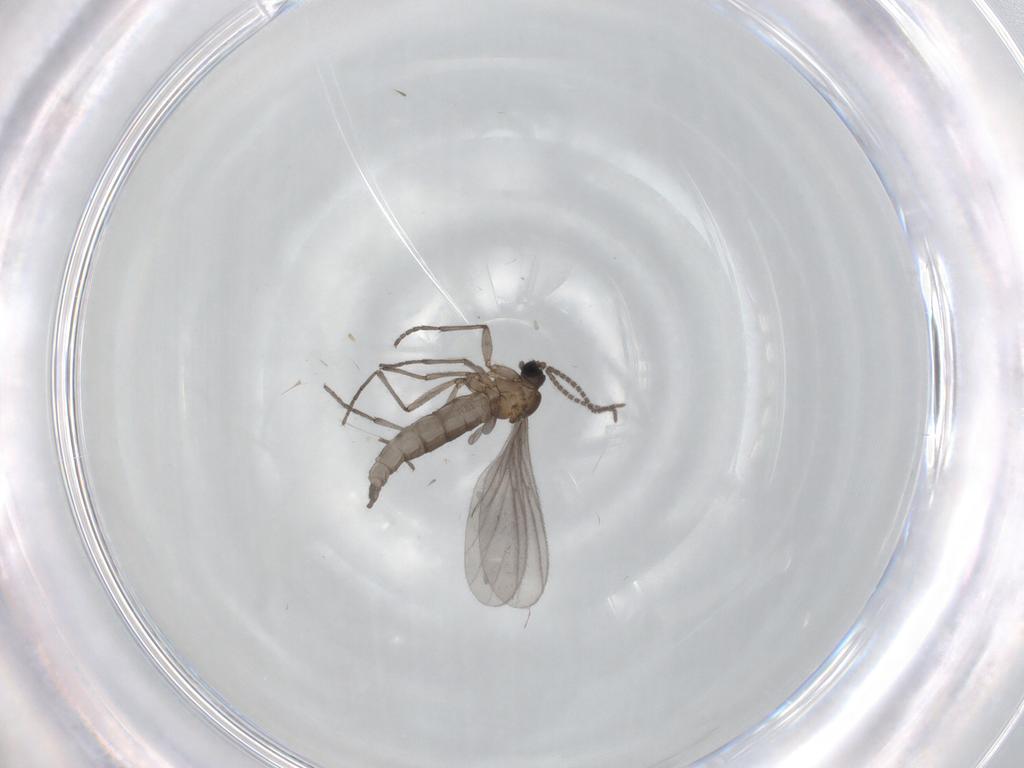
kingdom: Animalia
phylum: Arthropoda
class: Insecta
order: Diptera
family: Sciaridae
